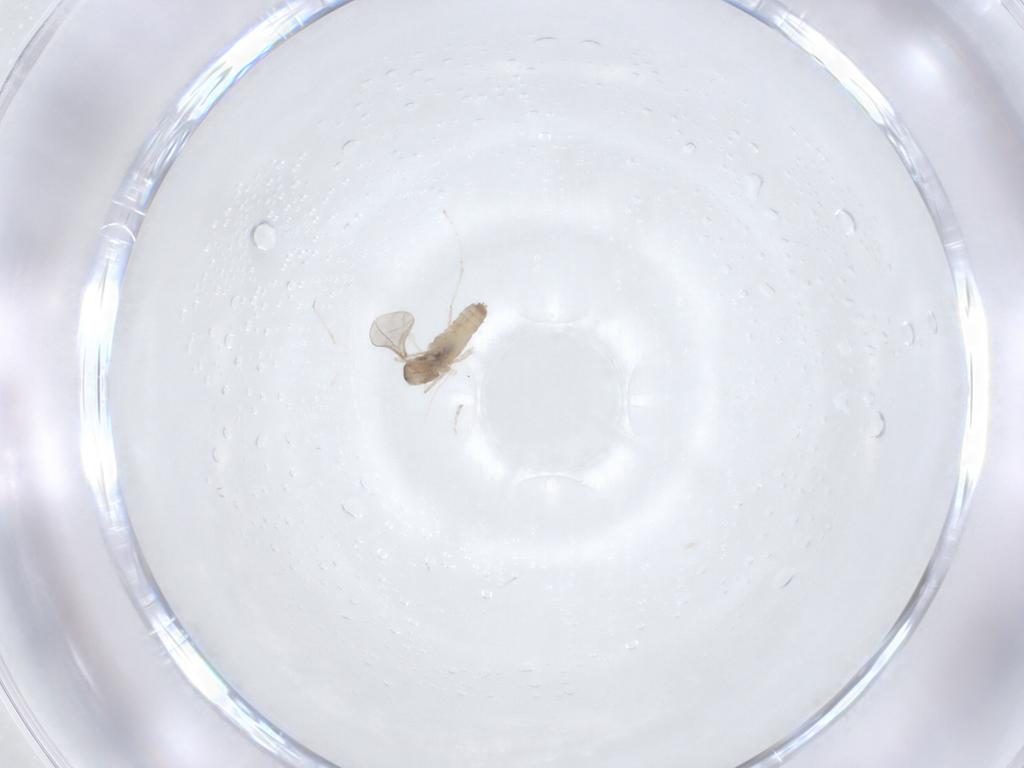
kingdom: Animalia
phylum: Arthropoda
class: Insecta
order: Diptera
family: Cecidomyiidae
